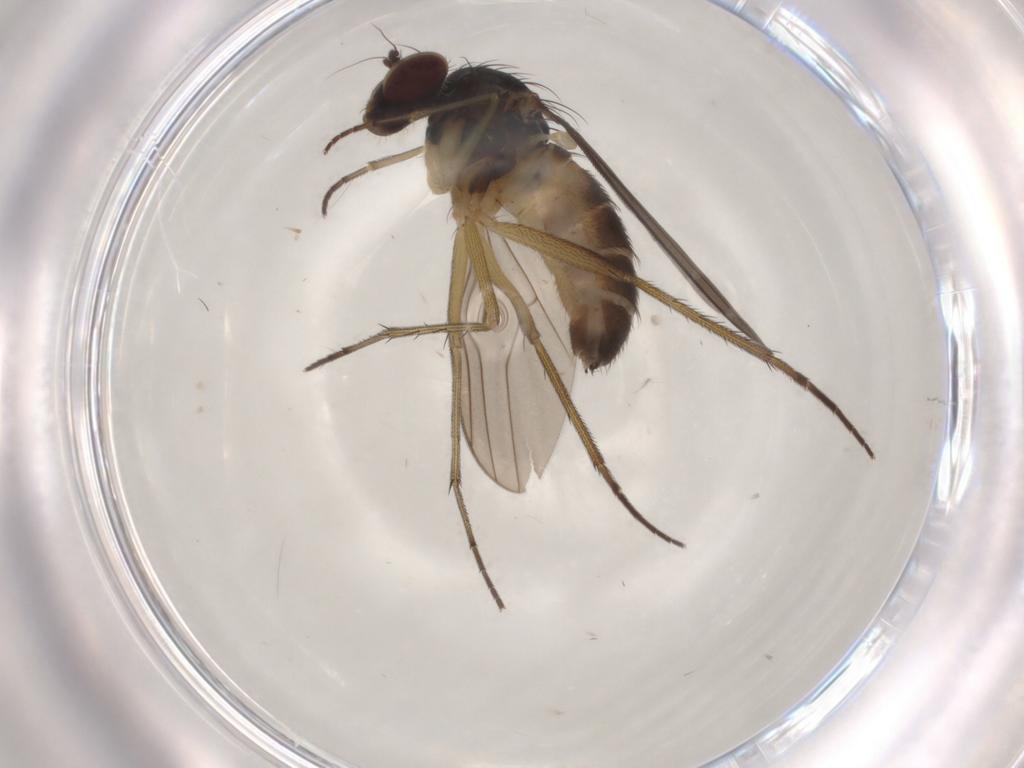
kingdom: Animalia
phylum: Arthropoda
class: Insecta
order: Diptera
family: Dolichopodidae
